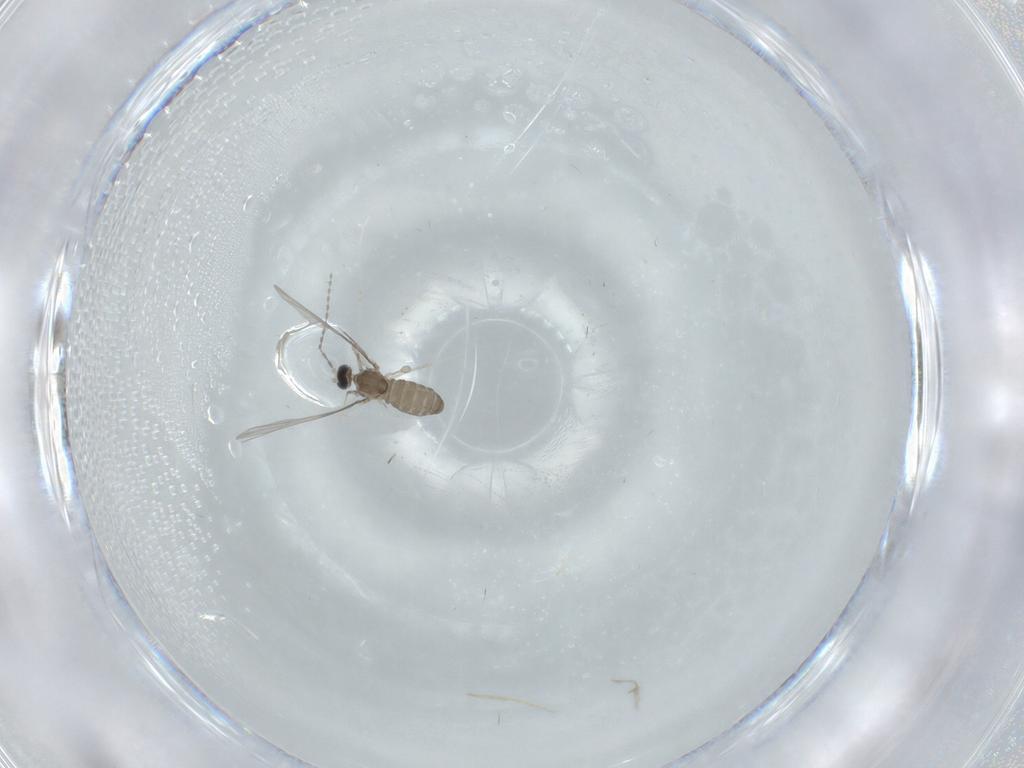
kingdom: Animalia
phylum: Arthropoda
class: Insecta
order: Diptera
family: Cecidomyiidae
